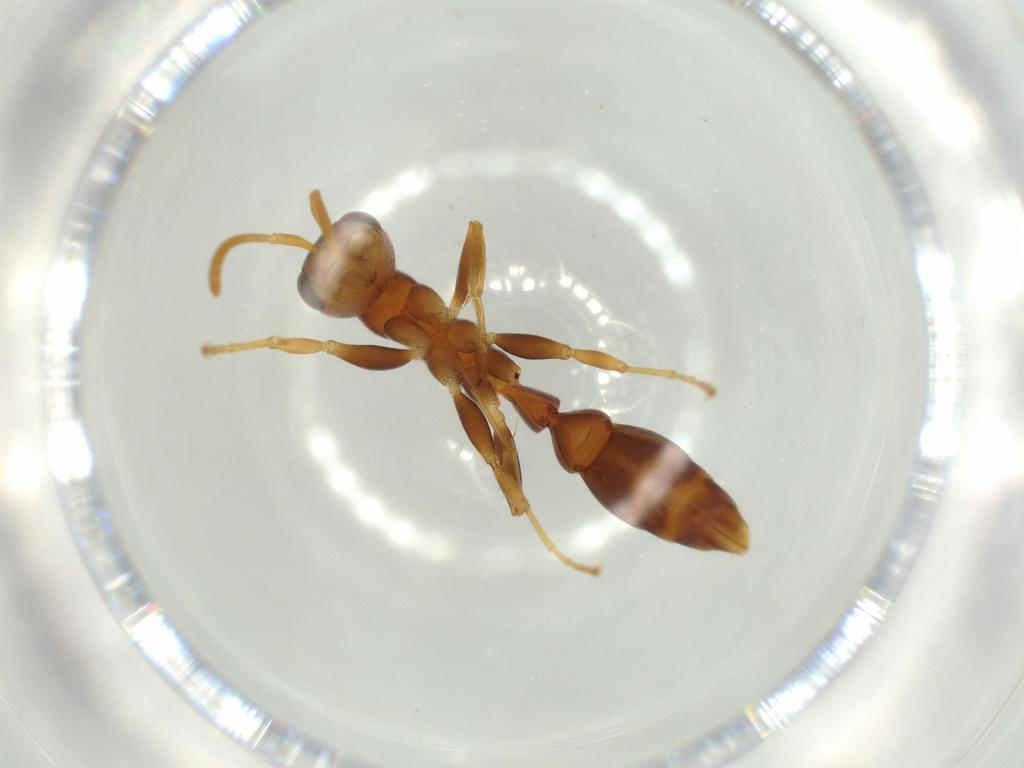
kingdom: Animalia
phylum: Arthropoda
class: Insecta
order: Hymenoptera
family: Formicidae
